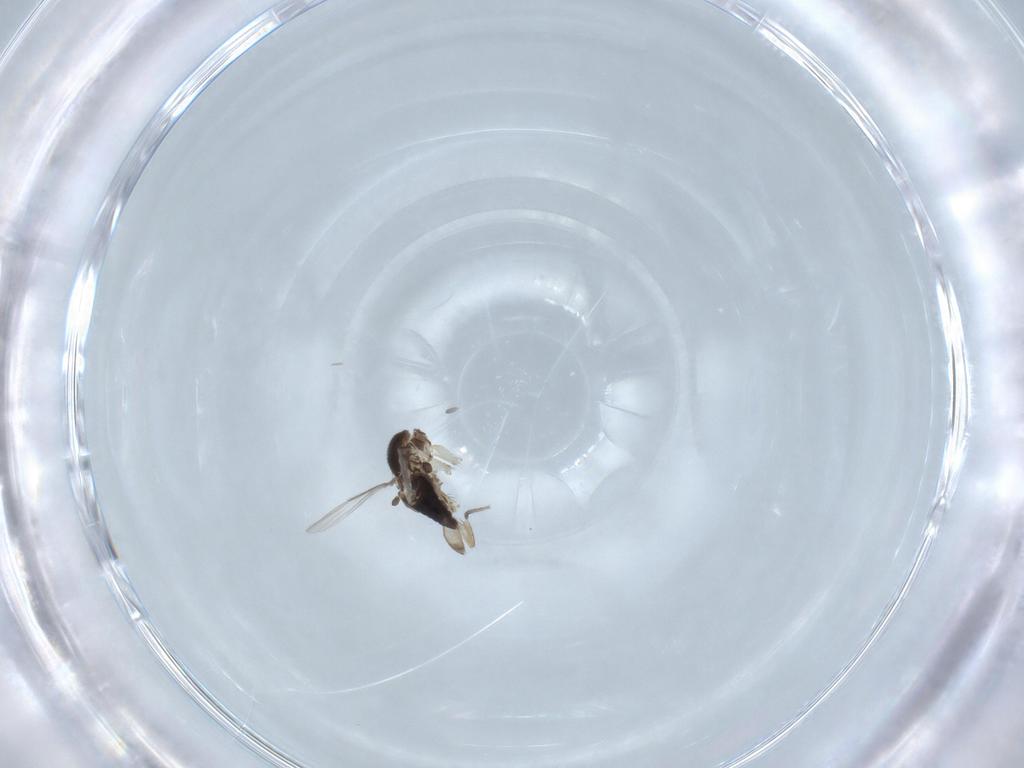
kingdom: Animalia
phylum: Arthropoda
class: Insecta
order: Diptera
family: Phoridae
